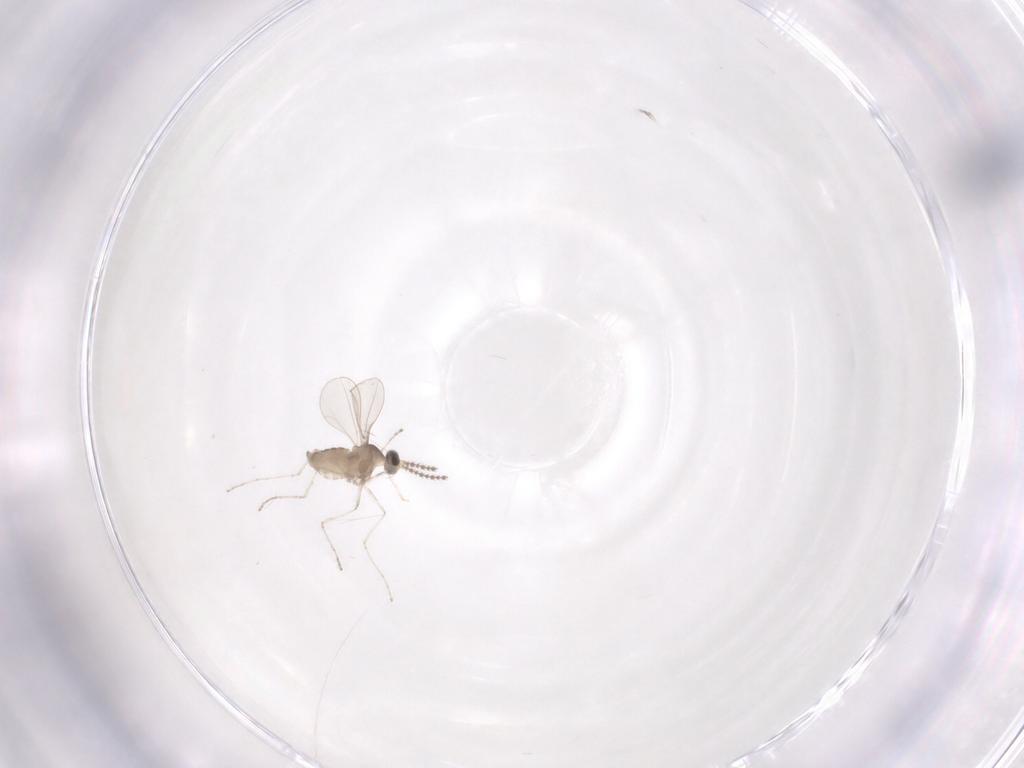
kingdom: Animalia
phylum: Arthropoda
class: Insecta
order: Diptera
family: Cecidomyiidae
